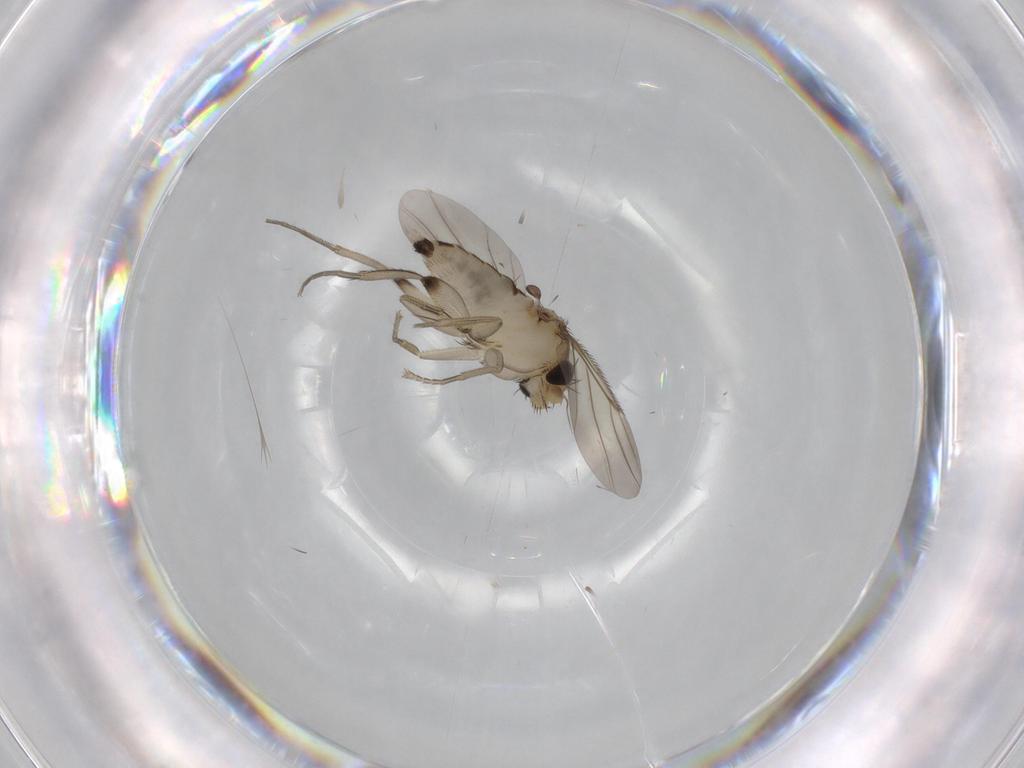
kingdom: Animalia
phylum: Arthropoda
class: Insecta
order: Diptera
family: Phoridae
